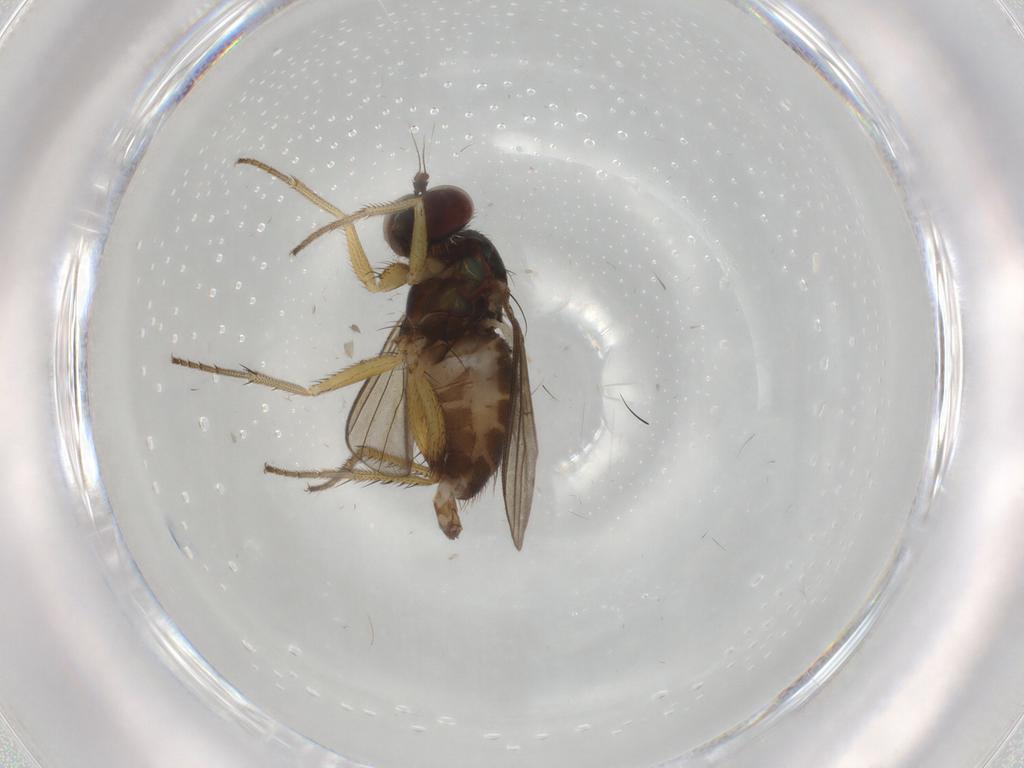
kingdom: Animalia
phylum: Arthropoda
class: Insecta
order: Diptera
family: Dolichopodidae
